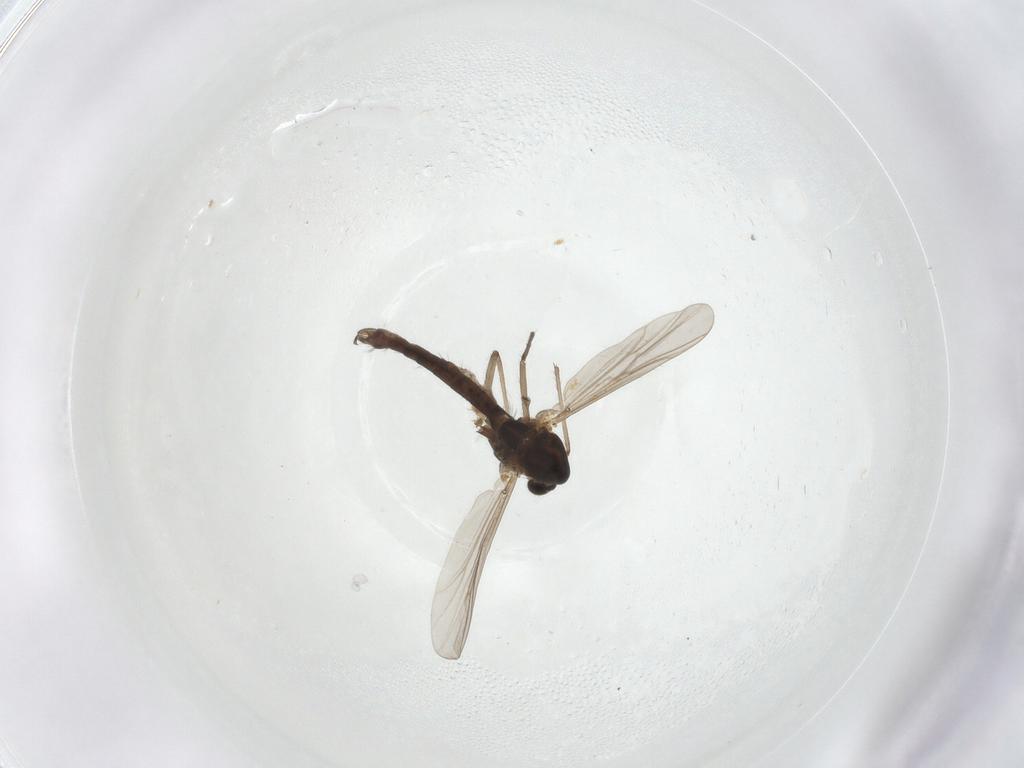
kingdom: Animalia
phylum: Arthropoda
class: Insecta
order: Diptera
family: Chironomidae
